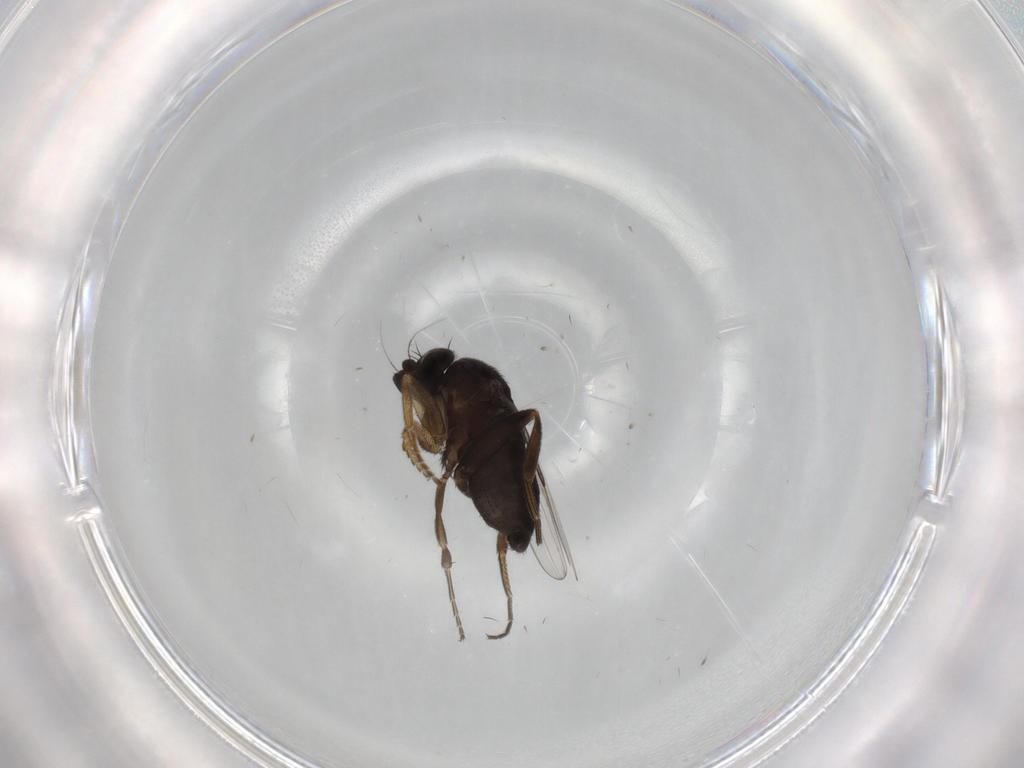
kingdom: Animalia
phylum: Arthropoda
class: Insecta
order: Diptera
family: Phoridae
